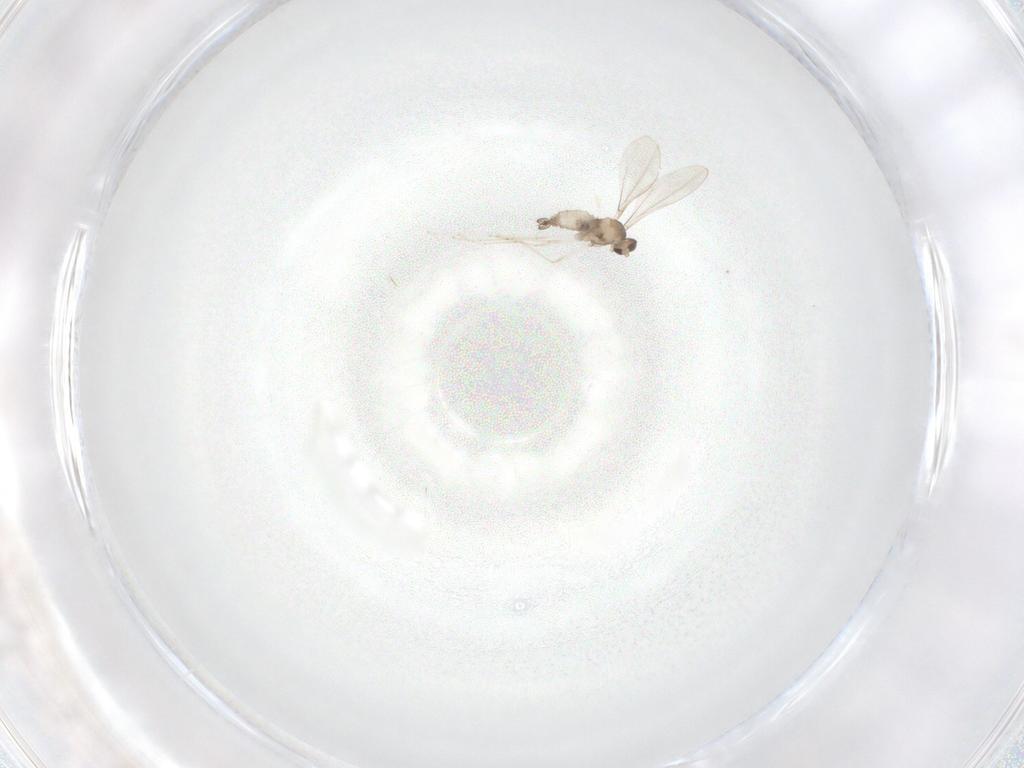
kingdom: Animalia
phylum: Arthropoda
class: Insecta
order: Diptera
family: Cecidomyiidae
